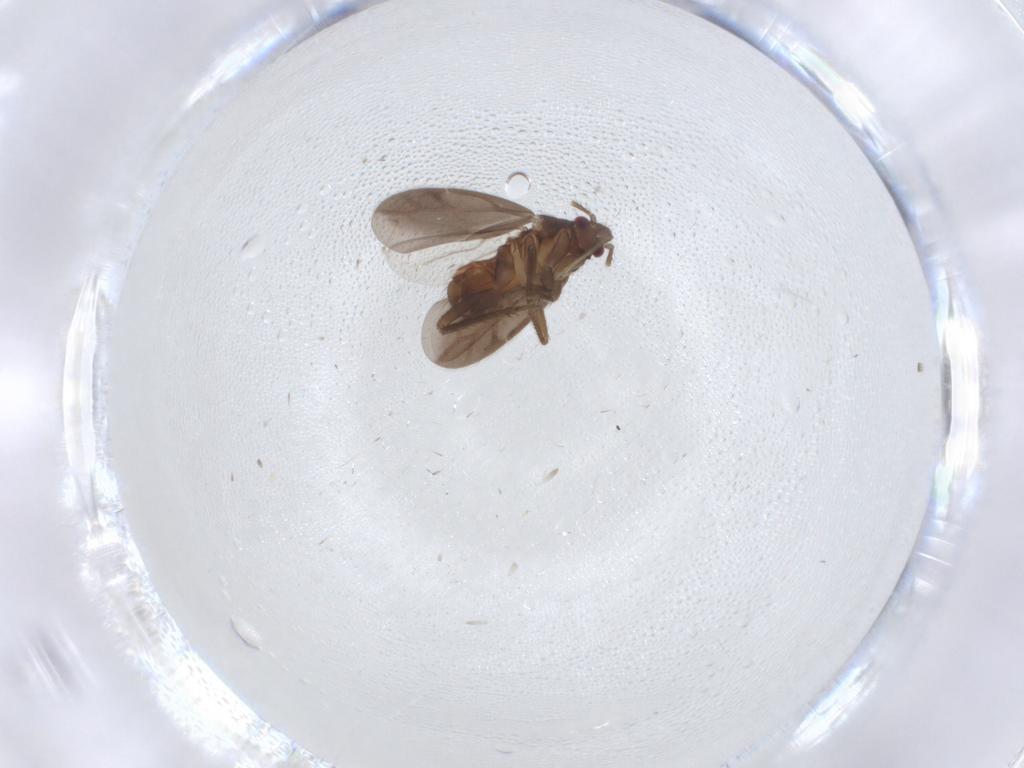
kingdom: Animalia
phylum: Arthropoda
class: Insecta
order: Hemiptera
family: Ceratocombidae
